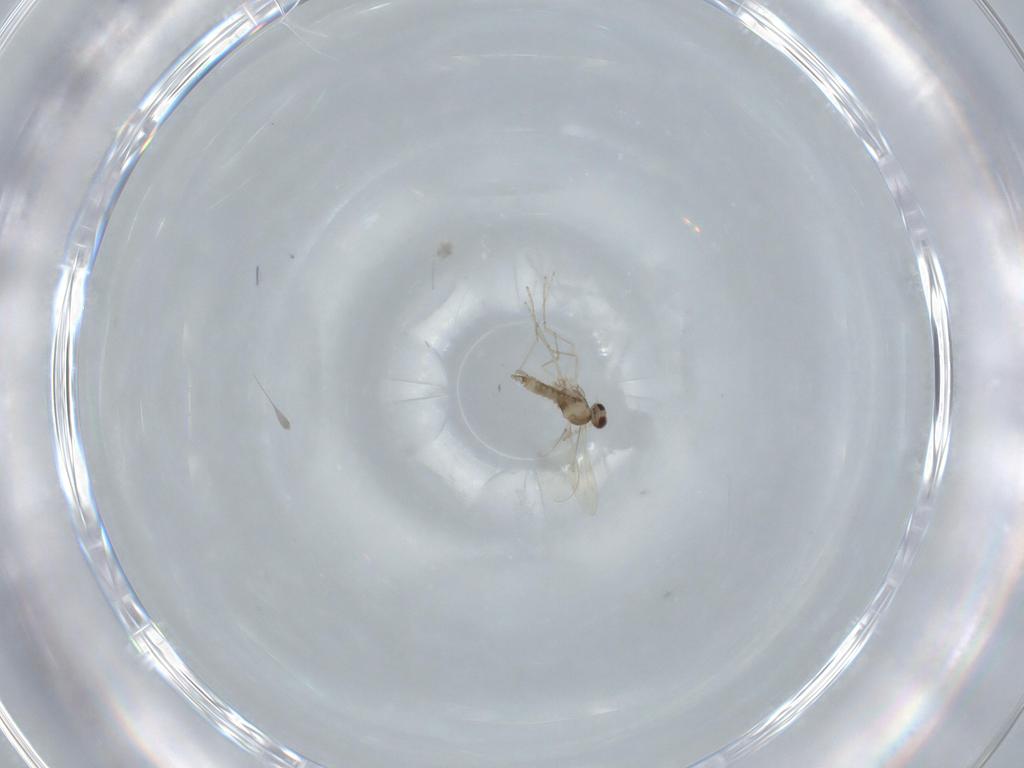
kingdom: Animalia
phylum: Arthropoda
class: Insecta
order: Diptera
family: Cecidomyiidae
